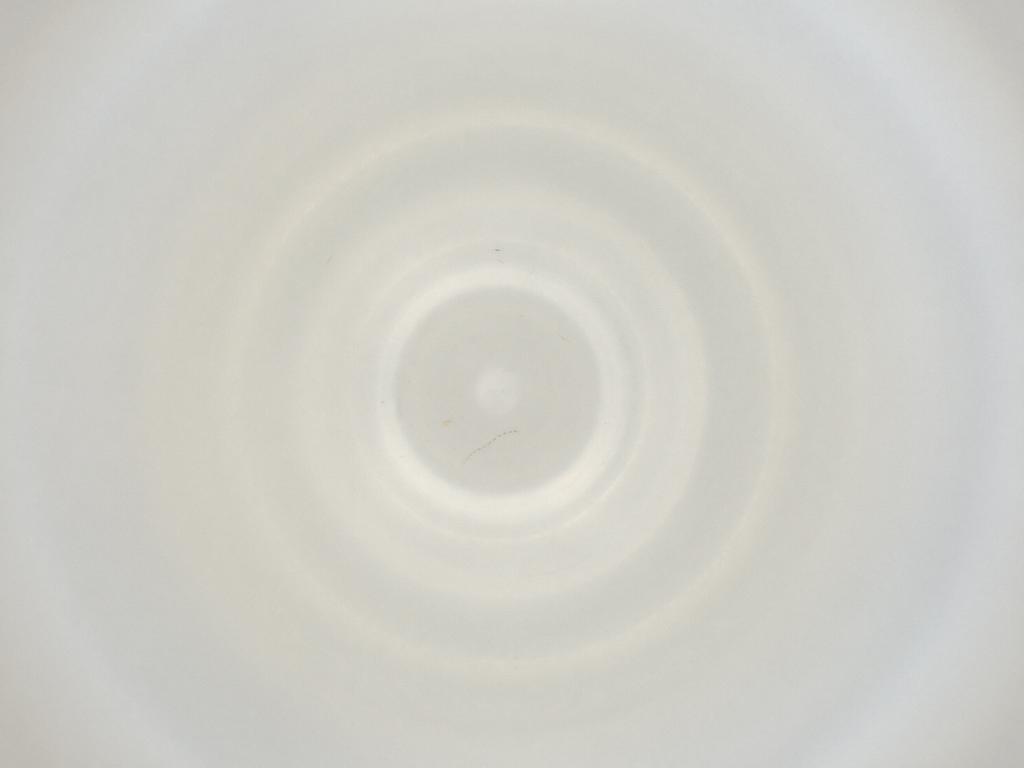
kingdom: Animalia
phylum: Arthropoda
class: Insecta
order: Diptera
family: Cecidomyiidae
